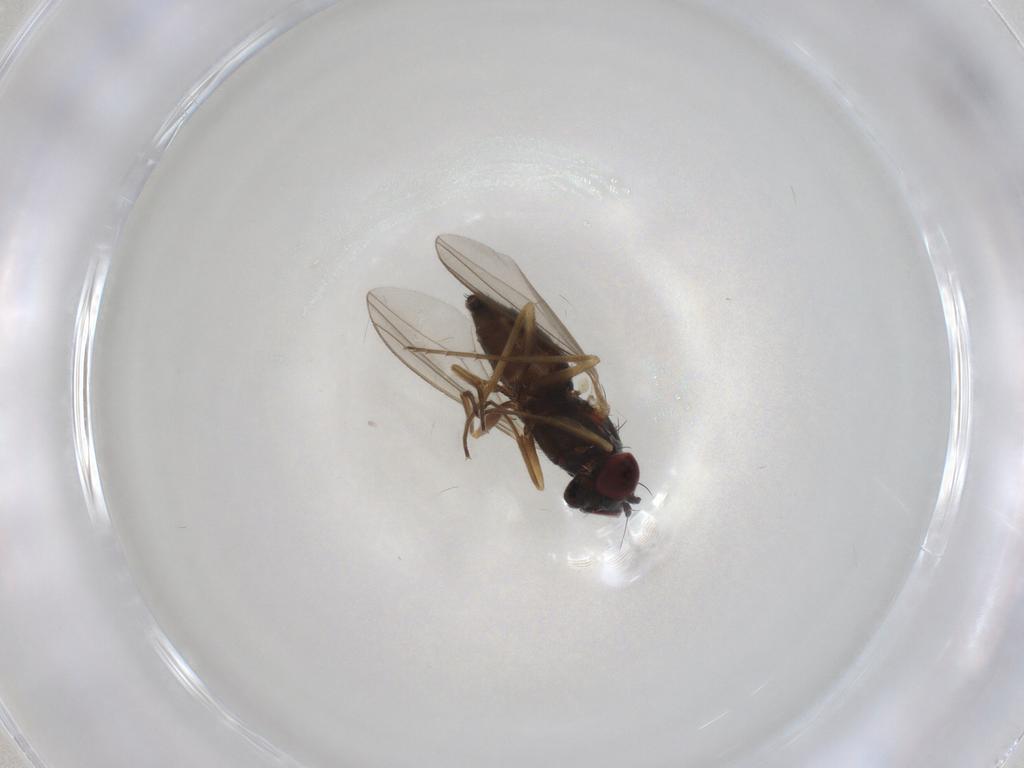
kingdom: Animalia
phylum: Arthropoda
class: Insecta
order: Diptera
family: Dolichopodidae
